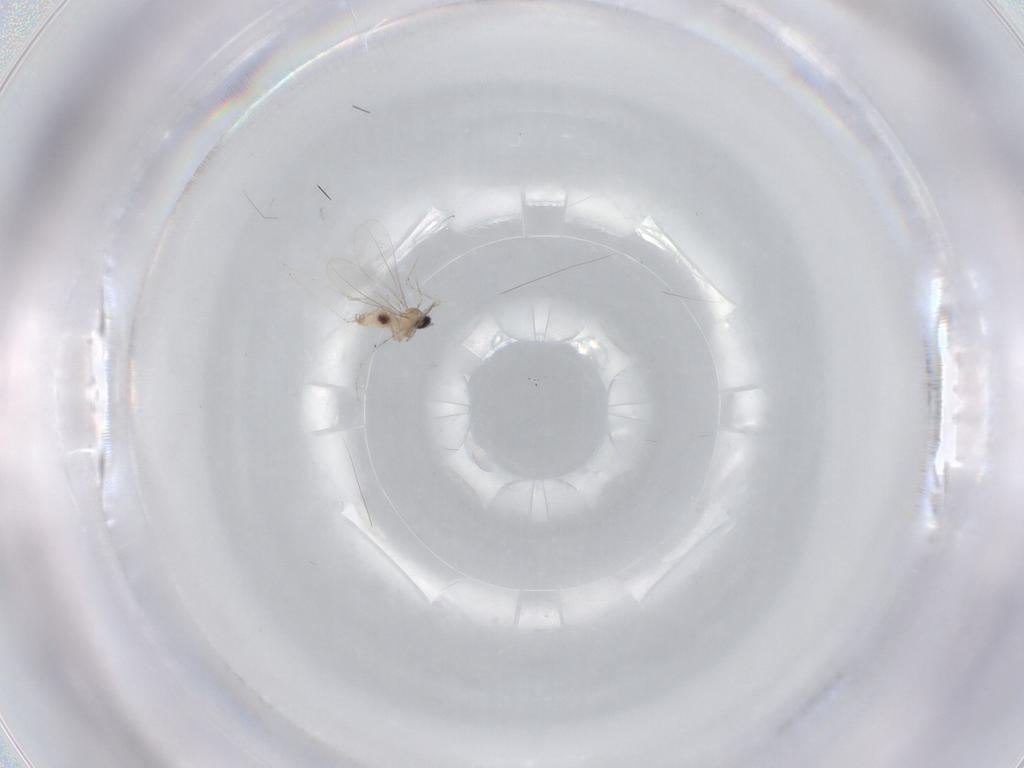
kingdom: Animalia
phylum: Arthropoda
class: Insecta
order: Diptera
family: Cecidomyiidae
